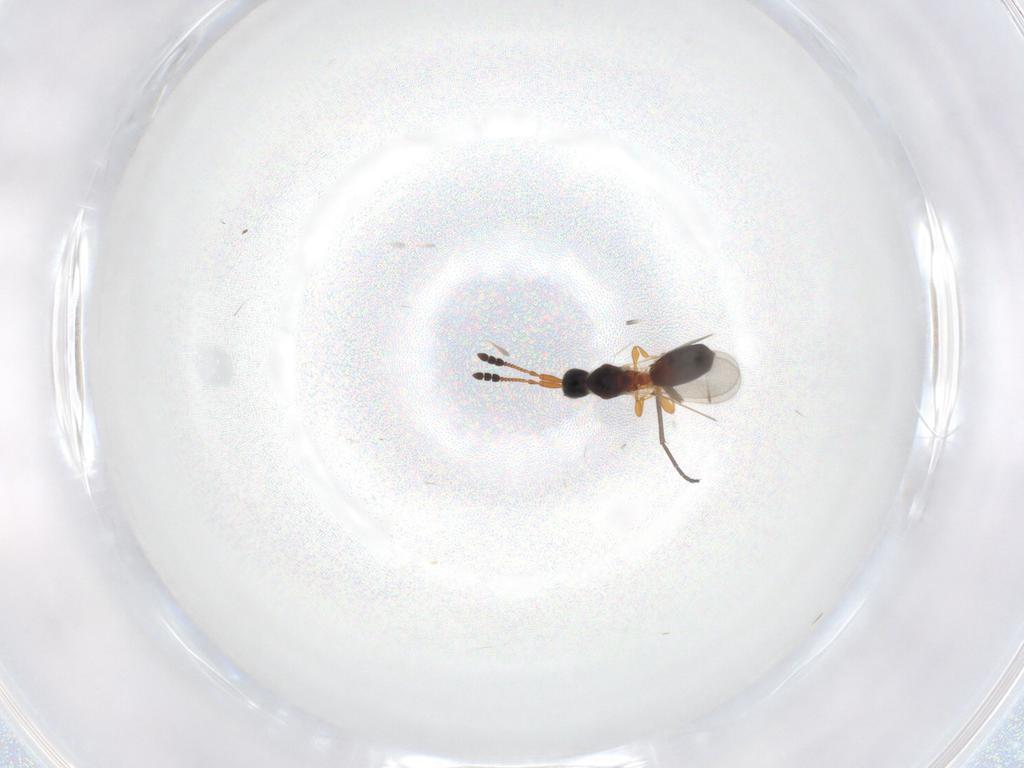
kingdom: Animalia
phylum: Arthropoda
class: Insecta
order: Hymenoptera
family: Diapriidae
